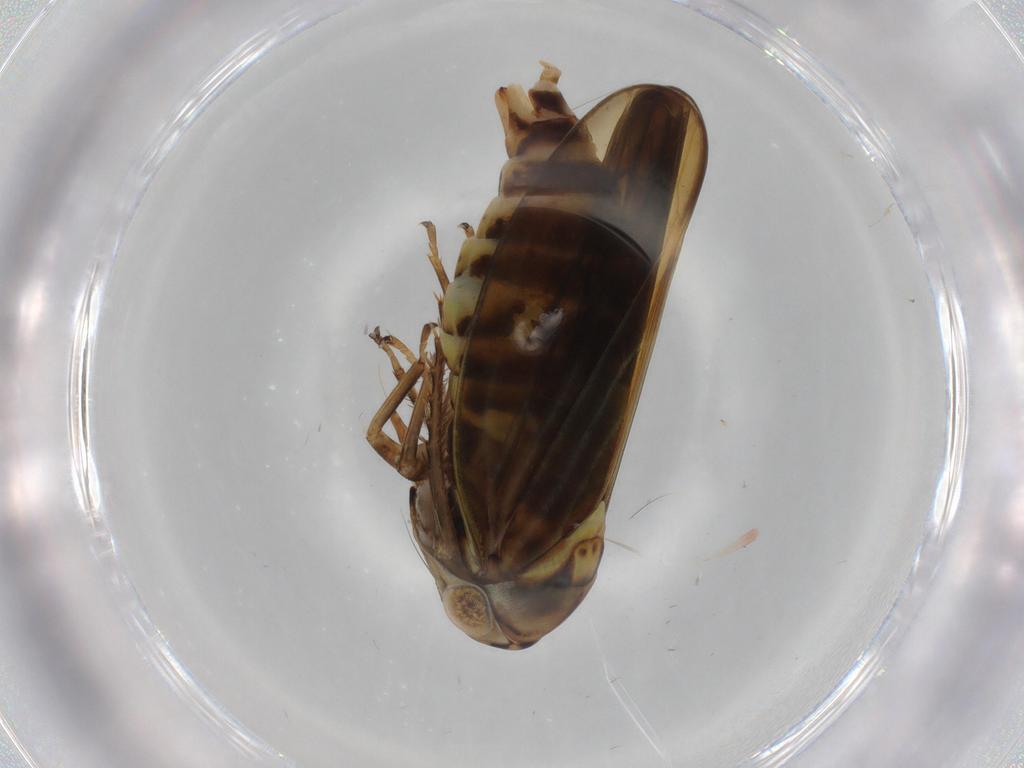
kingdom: Animalia
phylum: Arthropoda
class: Insecta
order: Hemiptera
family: Cicadellidae
